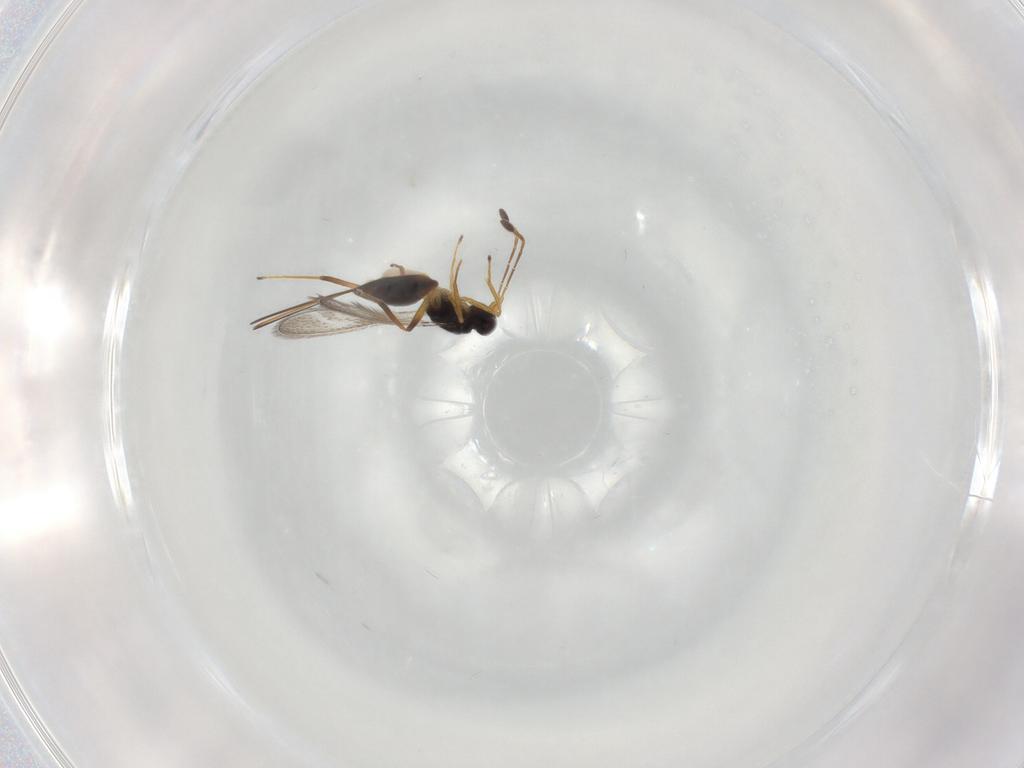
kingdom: Animalia
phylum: Arthropoda
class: Insecta
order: Hymenoptera
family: Mymaridae
